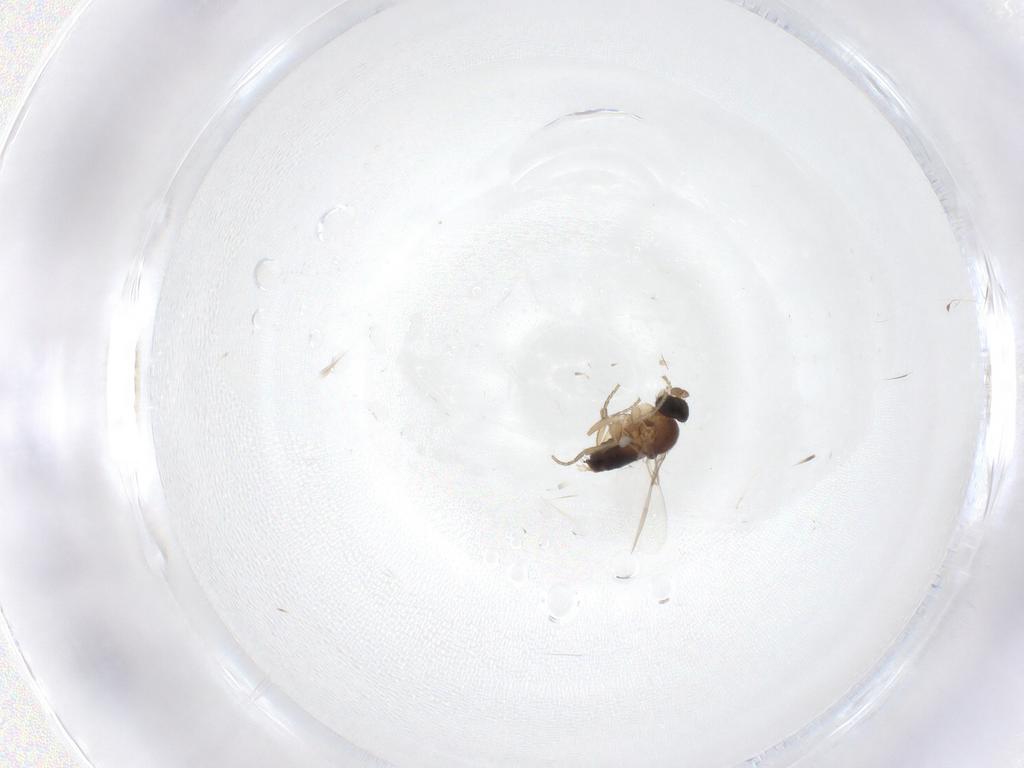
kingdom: Animalia
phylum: Arthropoda
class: Insecta
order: Hymenoptera
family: Bethylidae
